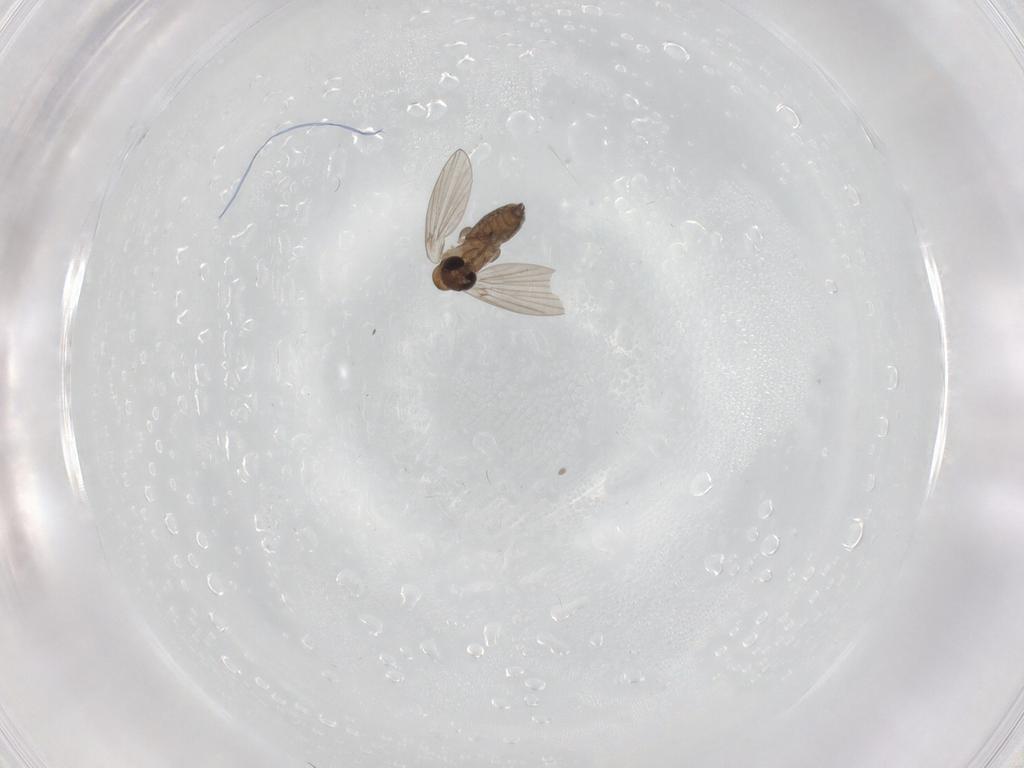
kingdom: Animalia
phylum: Arthropoda
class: Insecta
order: Diptera
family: Psychodidae
